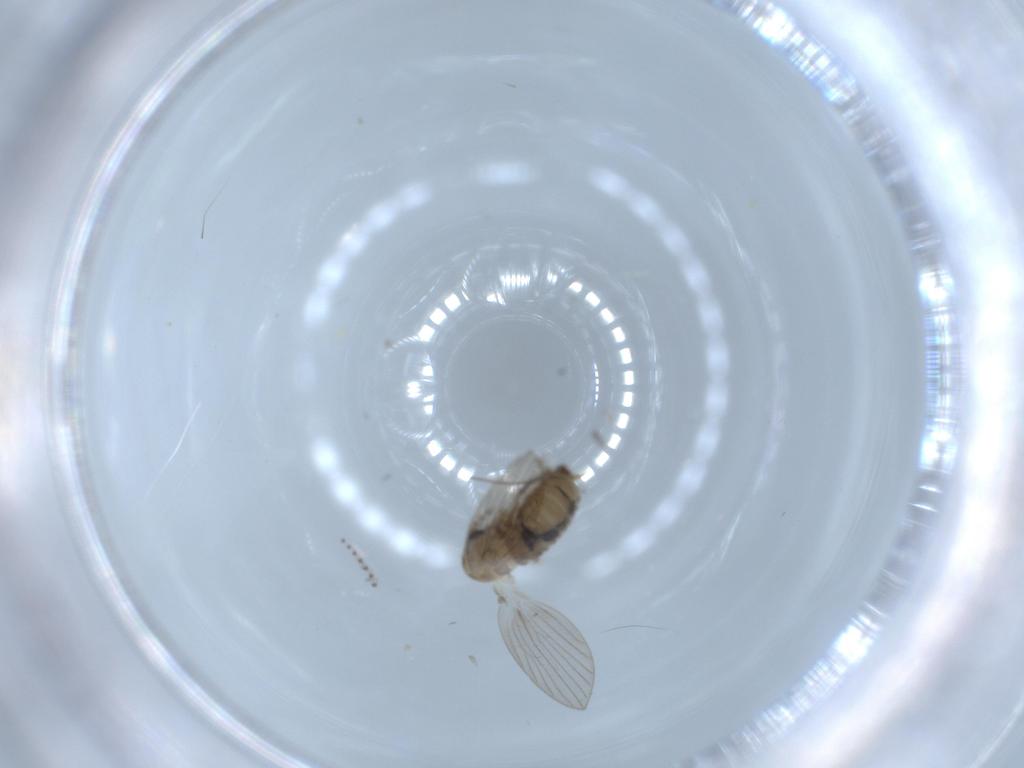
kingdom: Animalia
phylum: Arthropoda
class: Insecta
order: Diptera
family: Psychodidae
